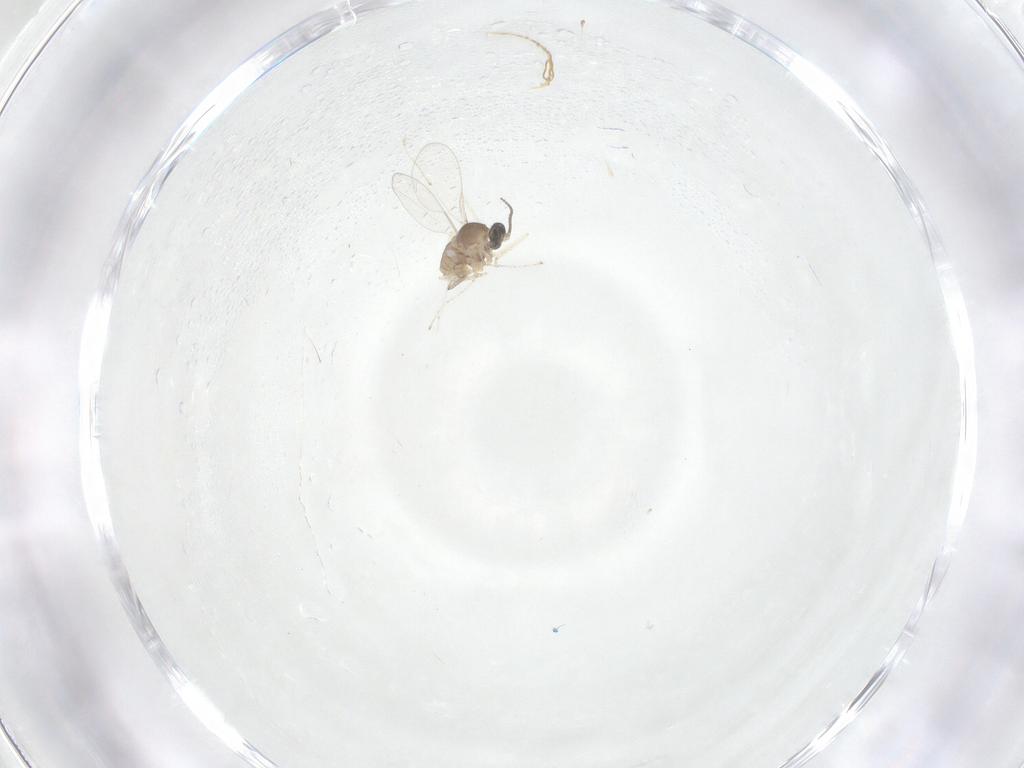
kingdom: Animalia
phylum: Arthropoda
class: Insecta
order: Diptera
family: Cecidomyiidae
